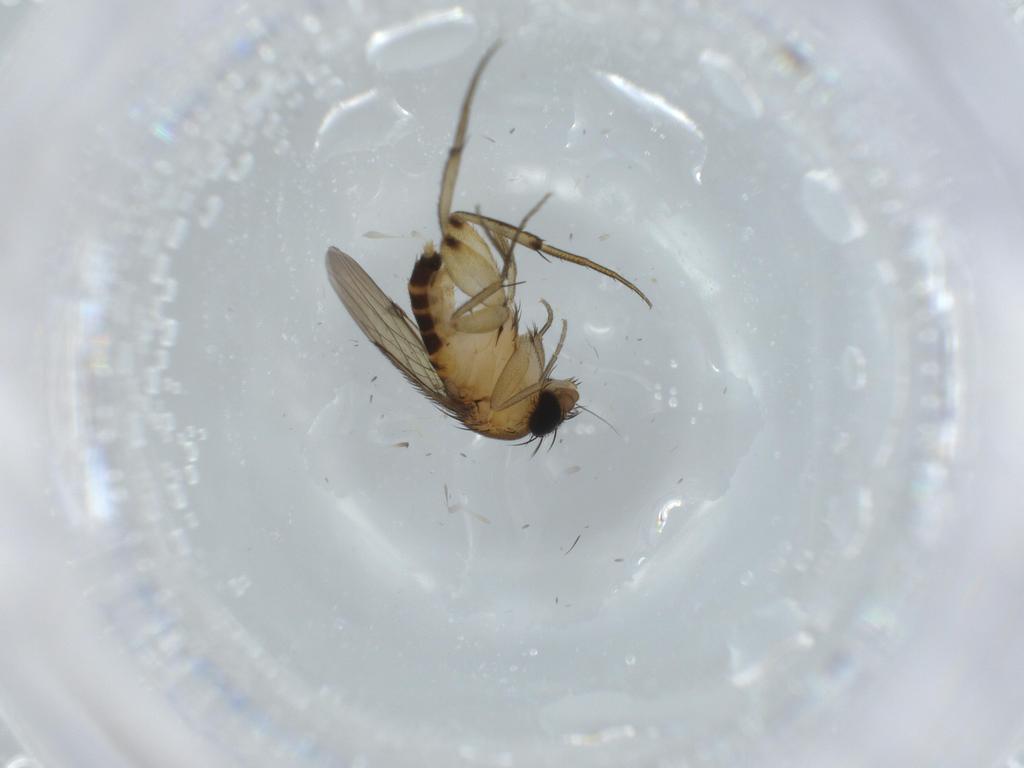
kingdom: Animalia
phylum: Arthropoda
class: Insecta
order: Diptera
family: Phoridae
